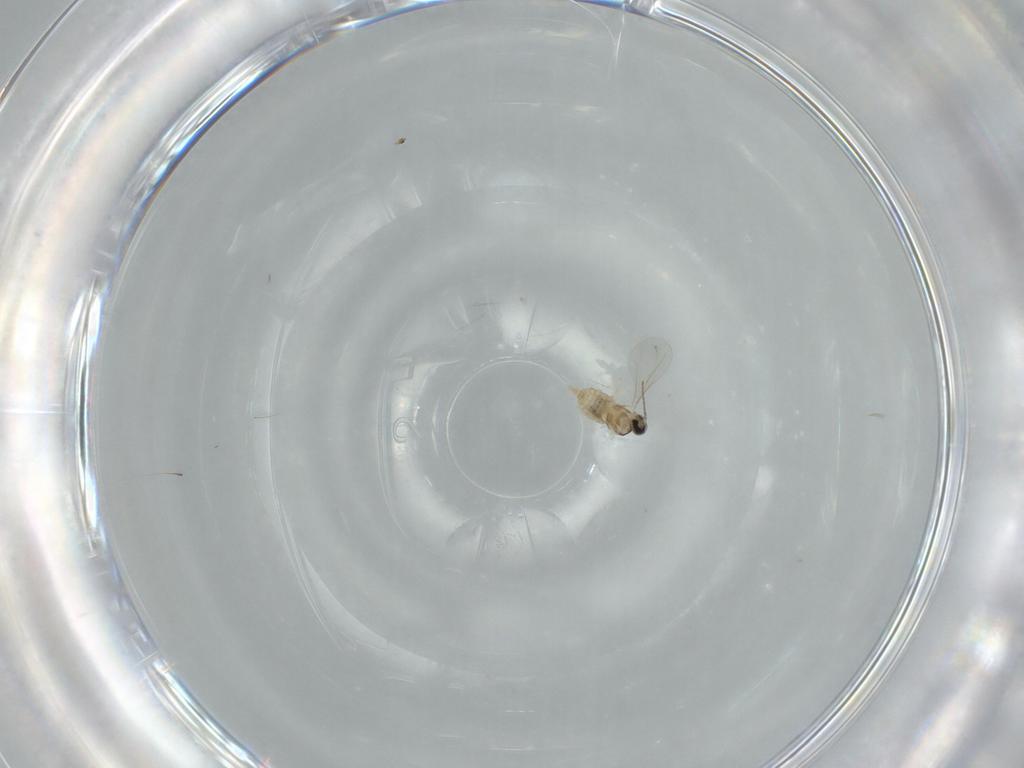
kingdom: Animalia
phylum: Arthropoda
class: Insecta
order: Diptera
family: Cecidomyiidae
